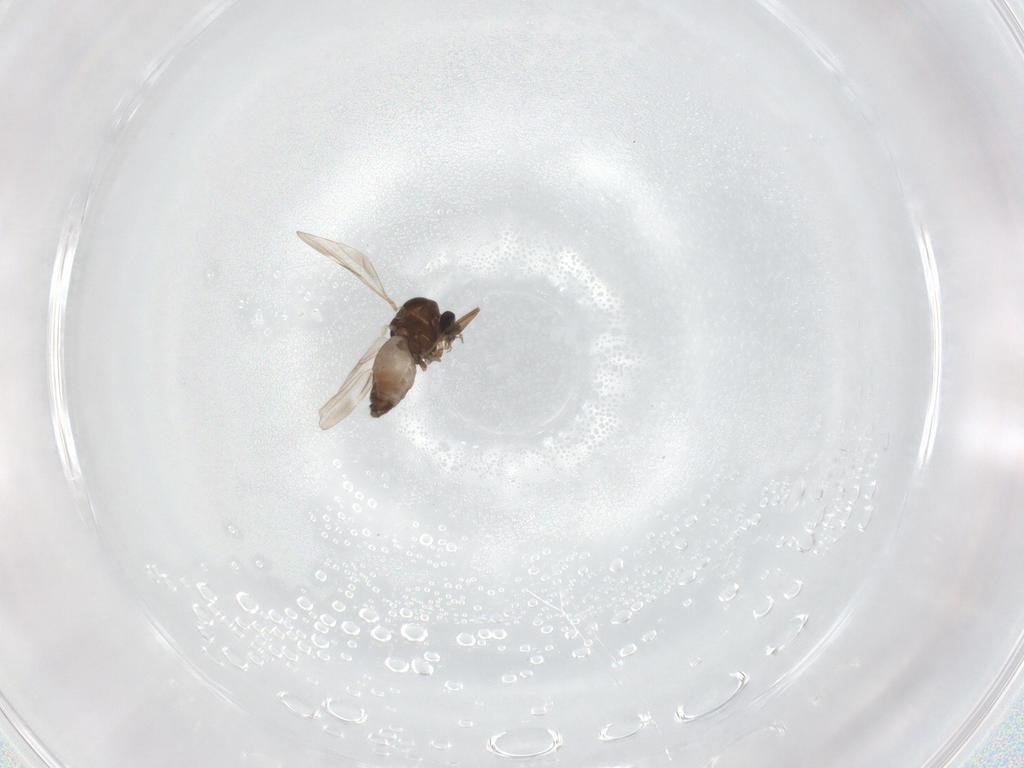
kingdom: Animalia
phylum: Arthropoda
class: Insecta
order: Diptera
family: Ceratopogonidae
